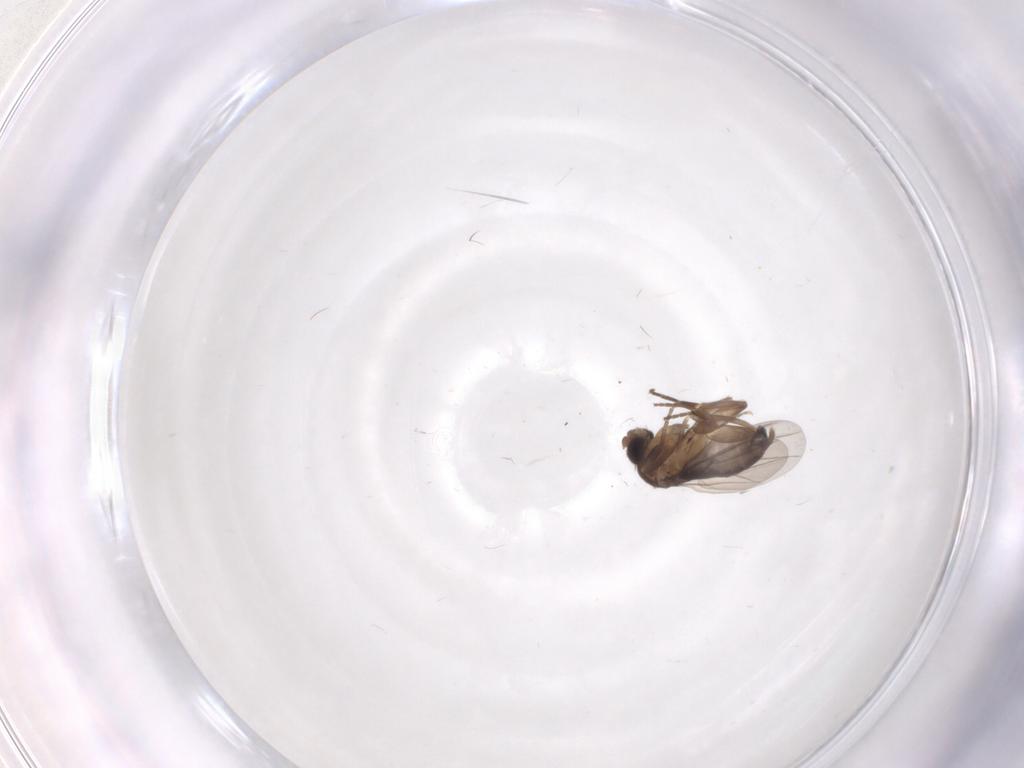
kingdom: Animalia
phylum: Arthropoda
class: Insecta
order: Diptera
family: Ceratopogonidae
